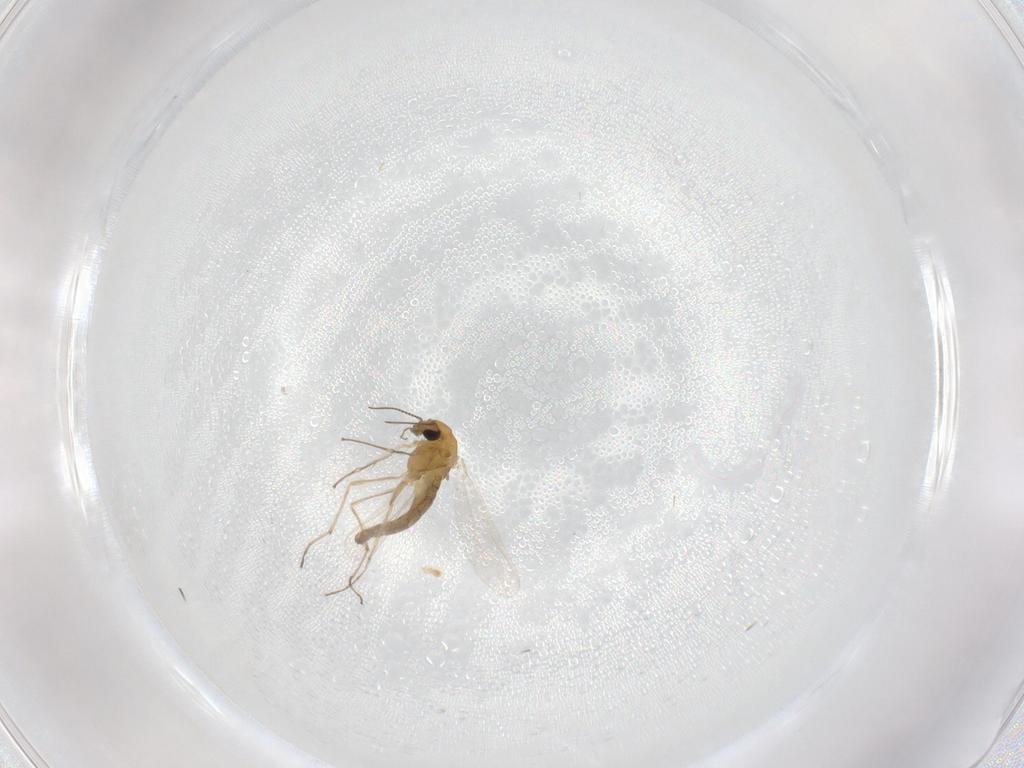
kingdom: Animalia
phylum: Arthropoda
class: Insecta
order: Diptera
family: Chironomidae
